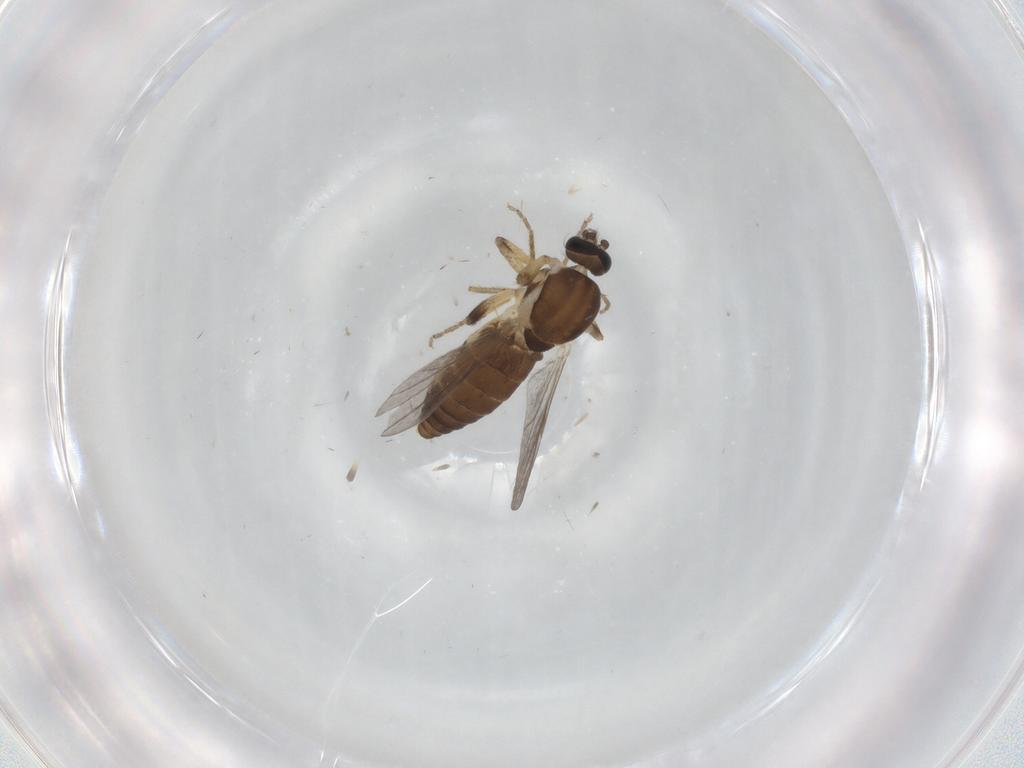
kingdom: Animalia
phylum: Arthropoda
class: Insecta
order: Diptera
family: Ceratopogonidae
